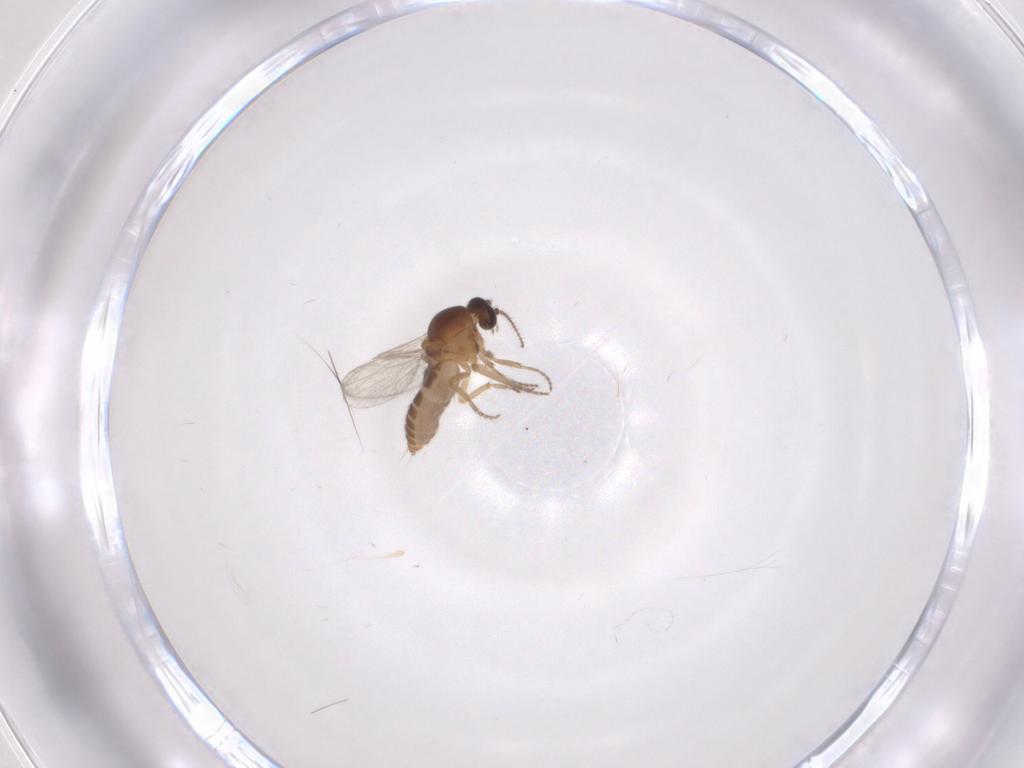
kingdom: Animalia
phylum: Arthropoda
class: Insecta
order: Diptera
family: Ceratopogonidae
